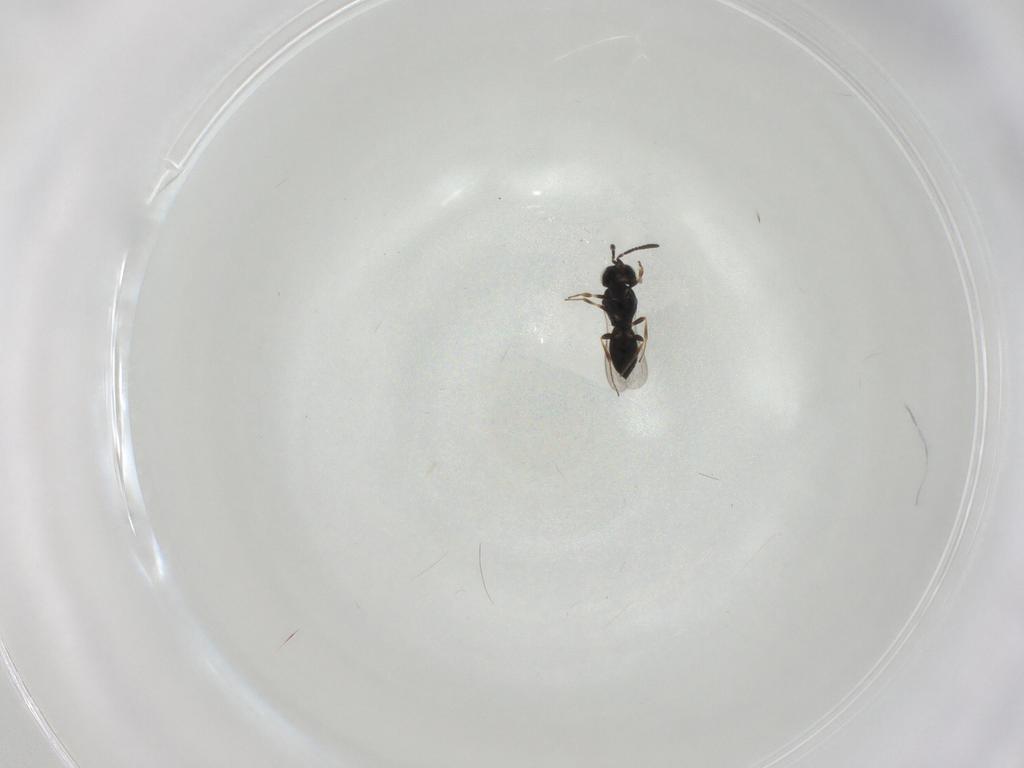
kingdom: Animalia
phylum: Arthropoda
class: Insecta
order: Hymenoptera
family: Scelionidae
